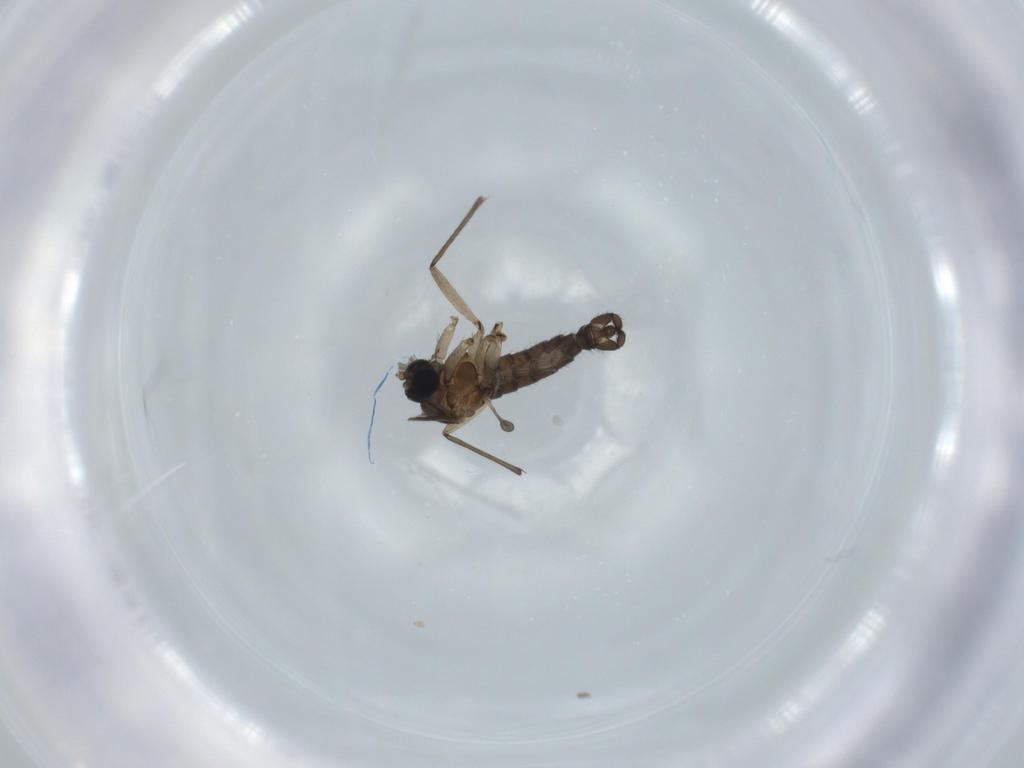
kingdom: Animalia
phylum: Arthropoda
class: Insecta
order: Diptera
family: Sciaridae
